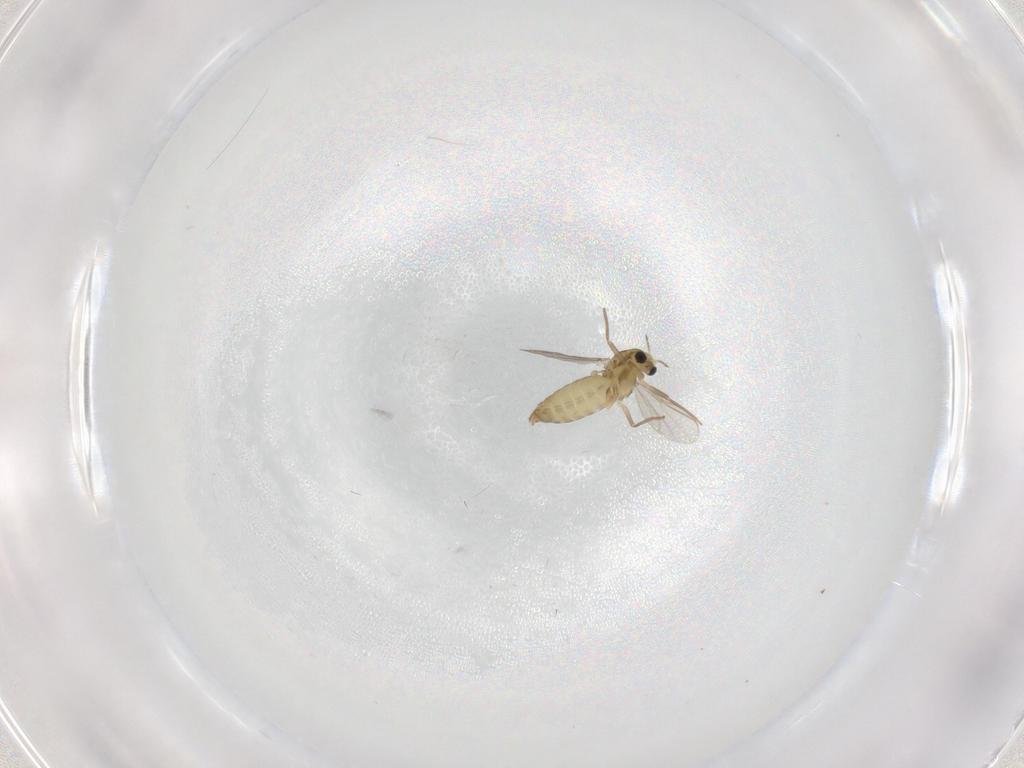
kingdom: Animalia
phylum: Arthropoda
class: Insecta
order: Diptera
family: Chironomidae
